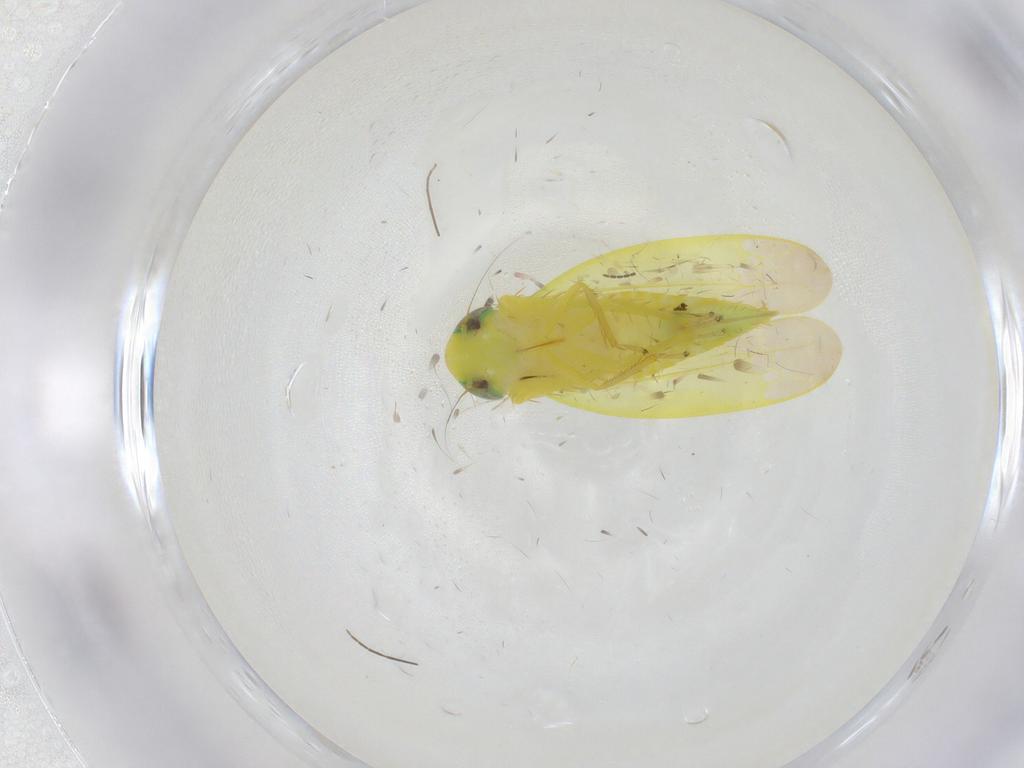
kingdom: Animalia
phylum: Arthropoda
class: Insecta
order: Hemiptera
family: Cicadellidae
